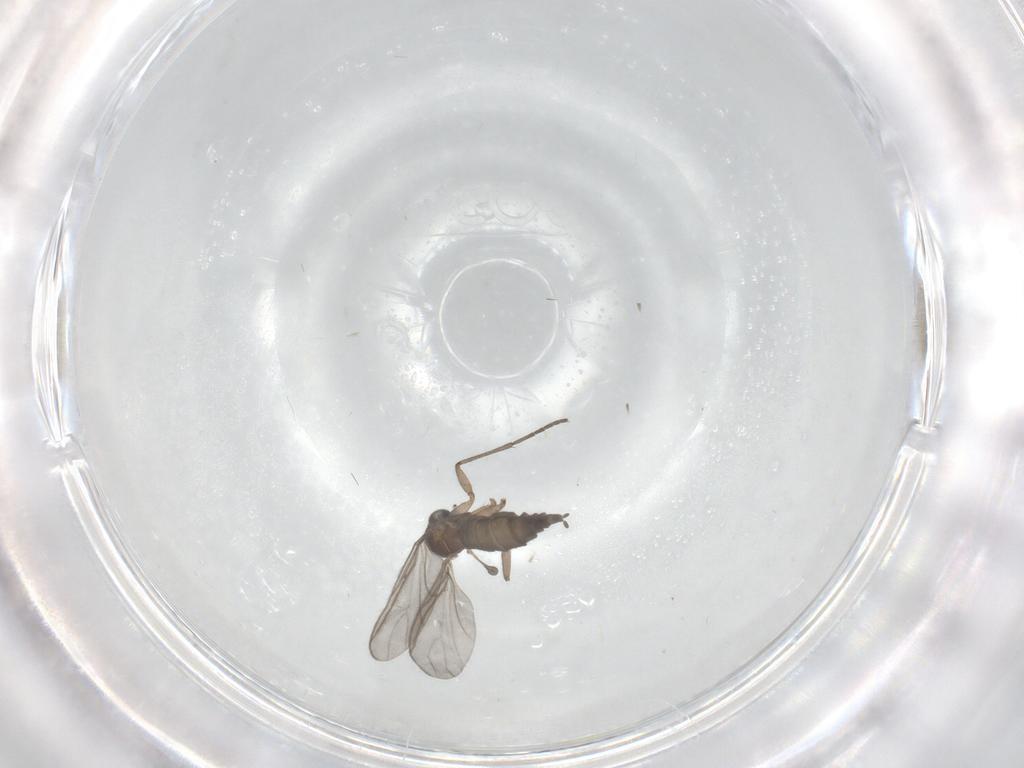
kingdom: Animalia
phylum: Arthropoda
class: Insecta
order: Diptera
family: Sciaridae
